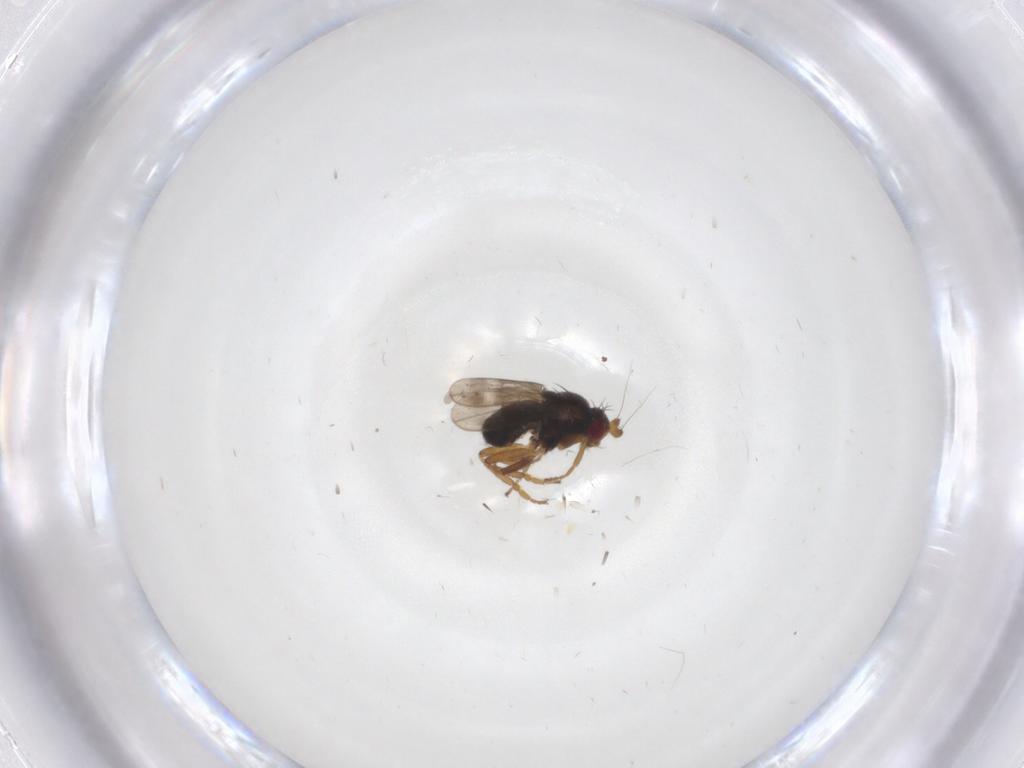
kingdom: Animalia
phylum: Arthropoda
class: Insecta
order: Diptera
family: Sphaeroceridae
